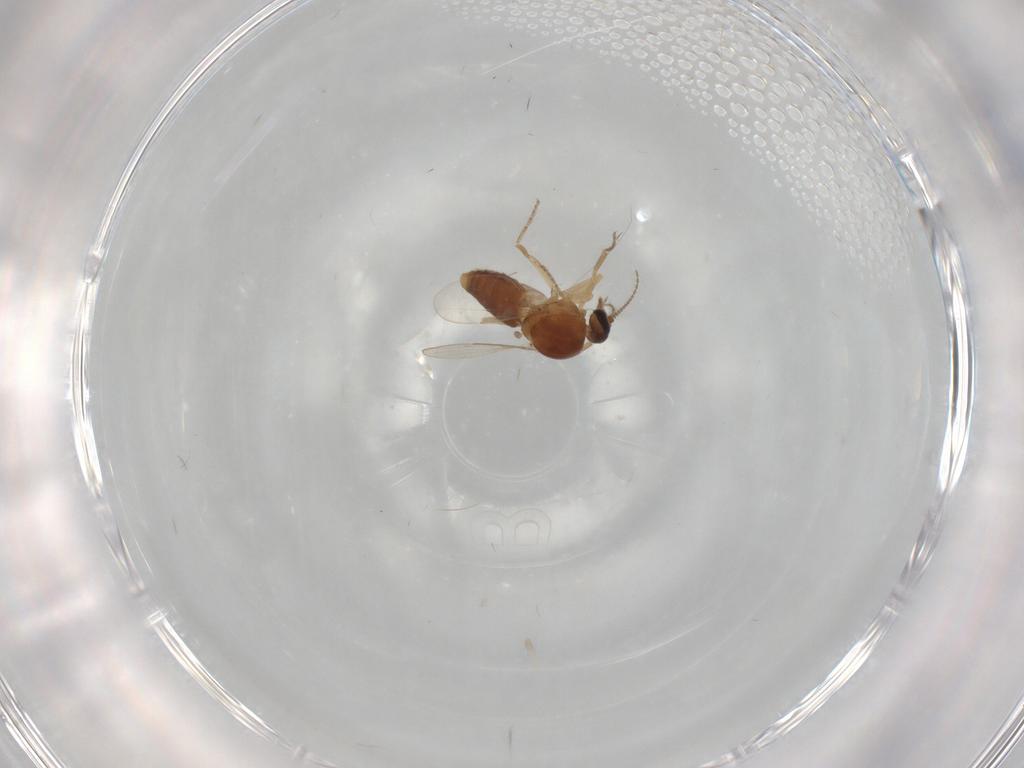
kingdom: Animalia
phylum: Arthropoda
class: Insecta
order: Diptera
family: Ceratopogonidae
